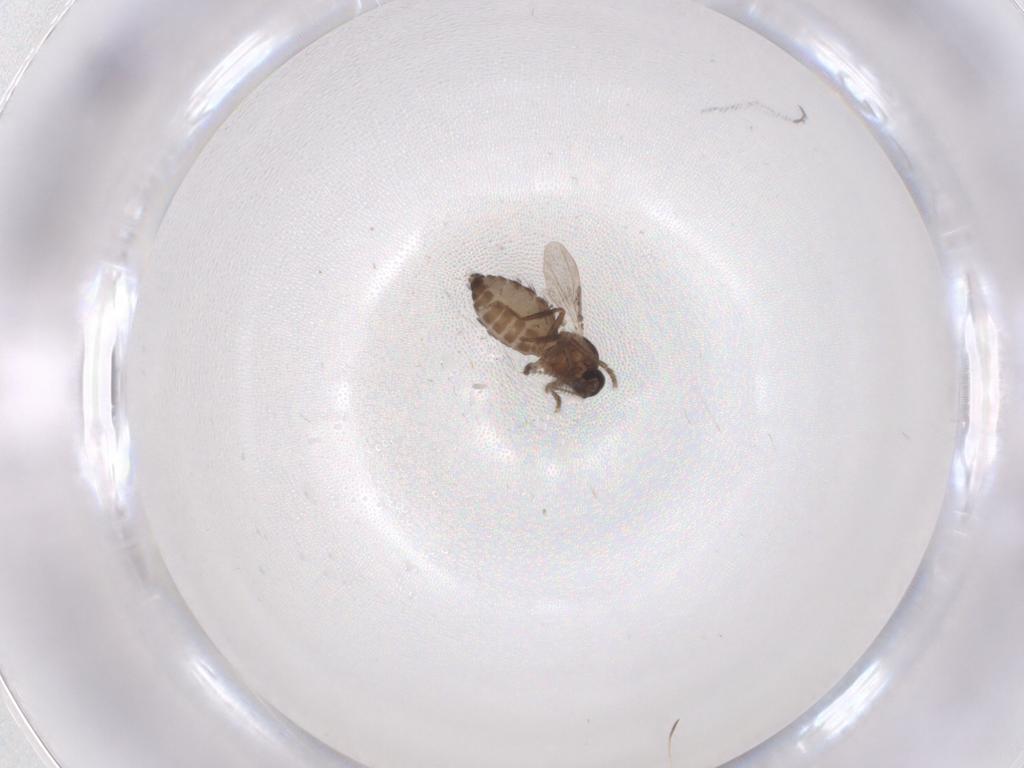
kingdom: Animalia
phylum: Arthropoda
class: Insecta
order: Diptera
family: Ceratopogonidae
